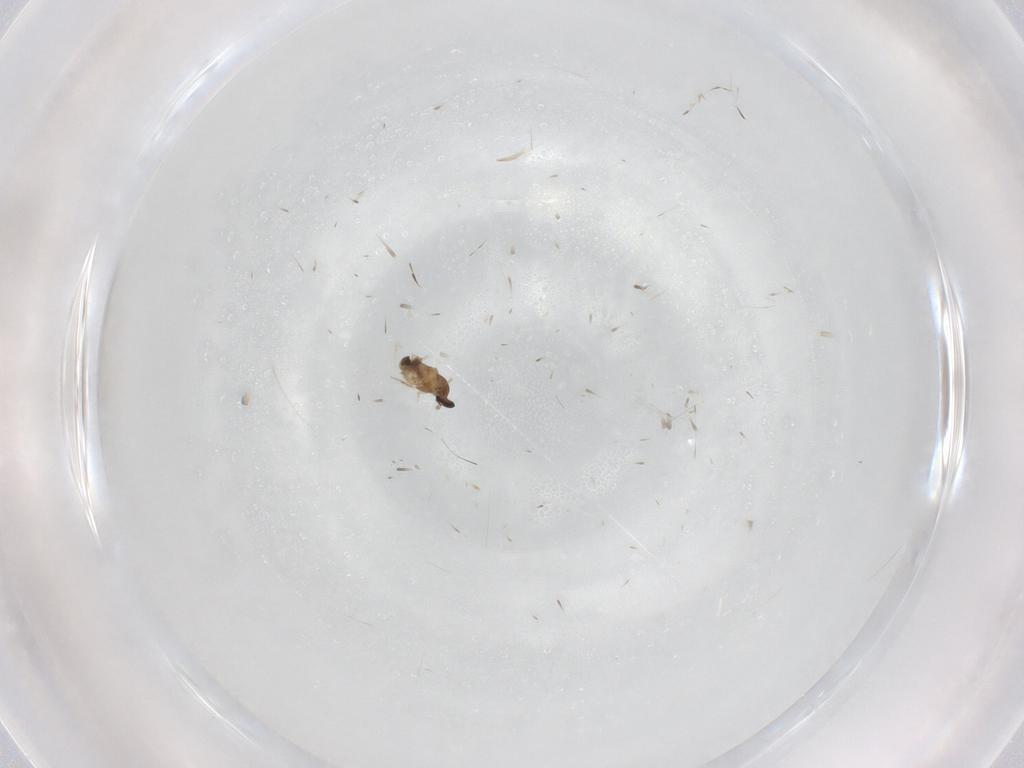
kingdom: Animalia
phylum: Arthropoda
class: Insecta
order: Diptera
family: Cecidomyiidae
